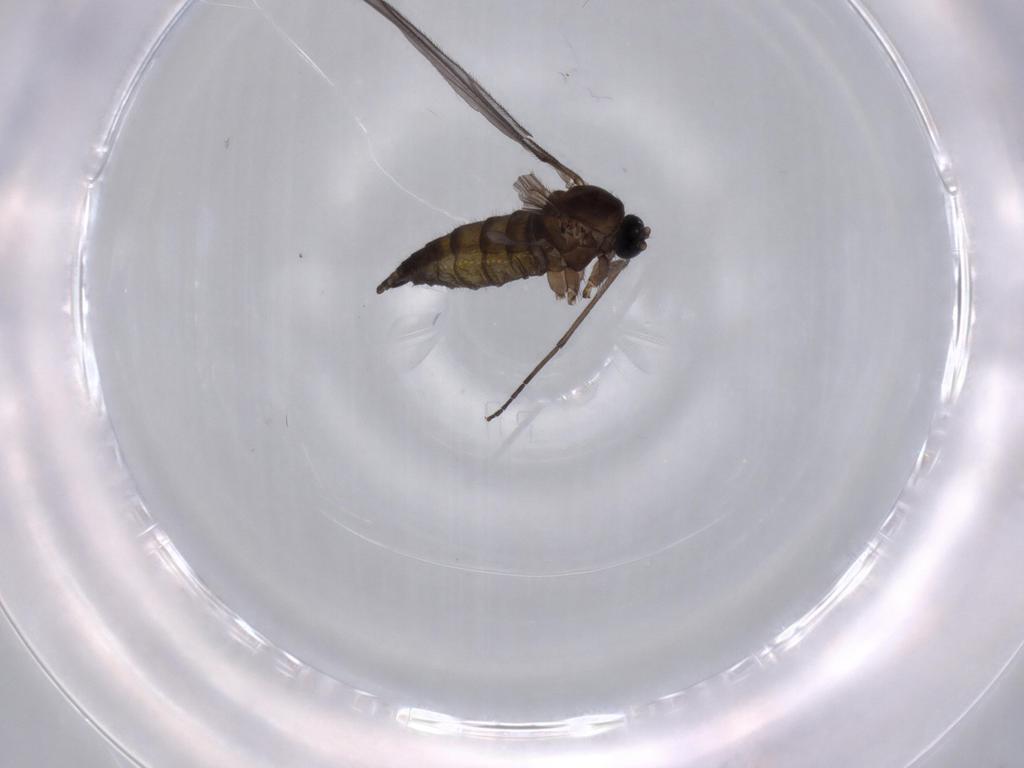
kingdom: Animalia
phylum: Arthropoda
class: Insecta
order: Diptera
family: Sciaridae
